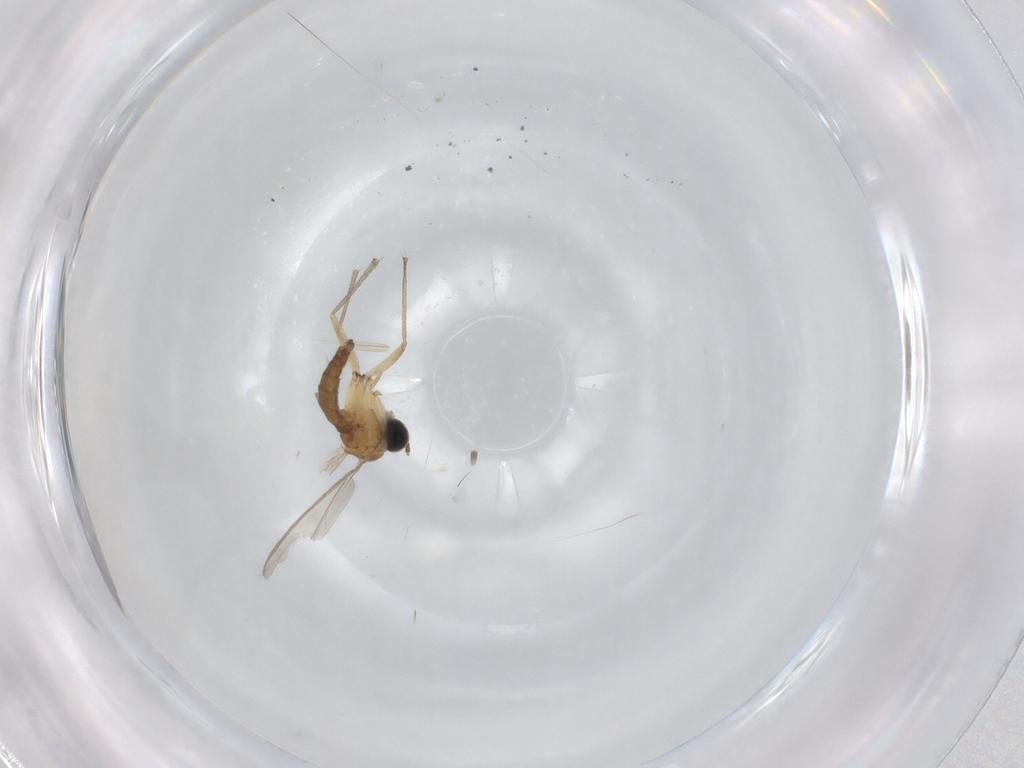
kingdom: Animalia
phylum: Arthropoda
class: Insecta
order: Diptera
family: Sciaridae
